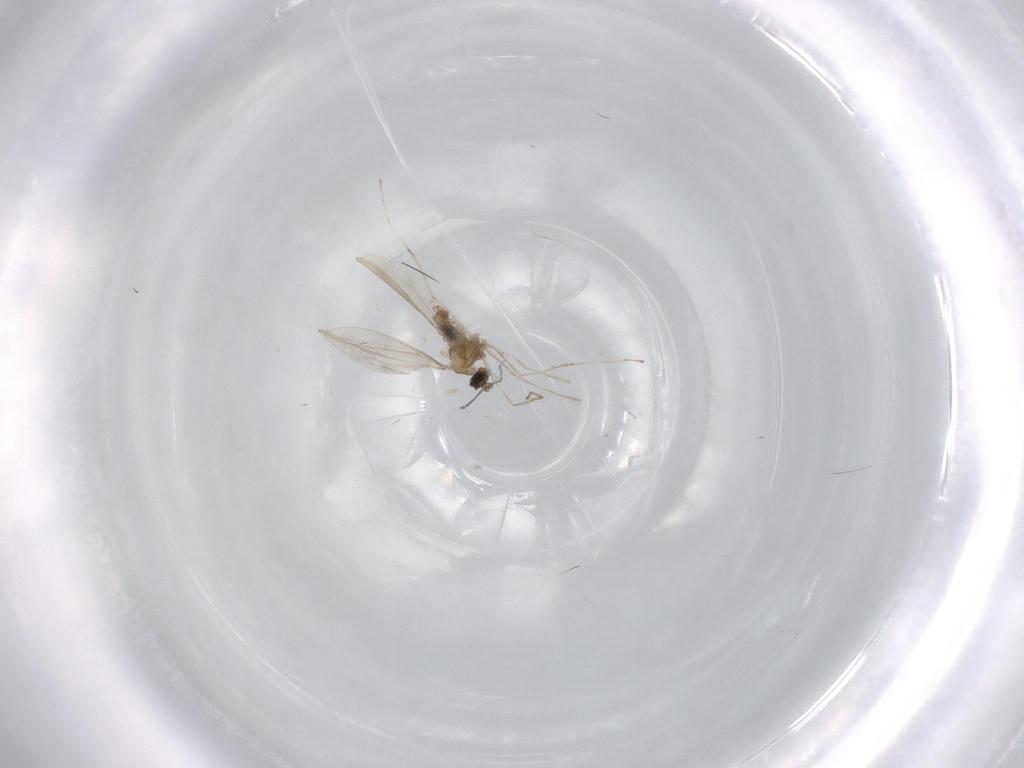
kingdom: Animalia
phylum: Arthropoda
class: Insecta
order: Diptera
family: Cecidomyiidae
